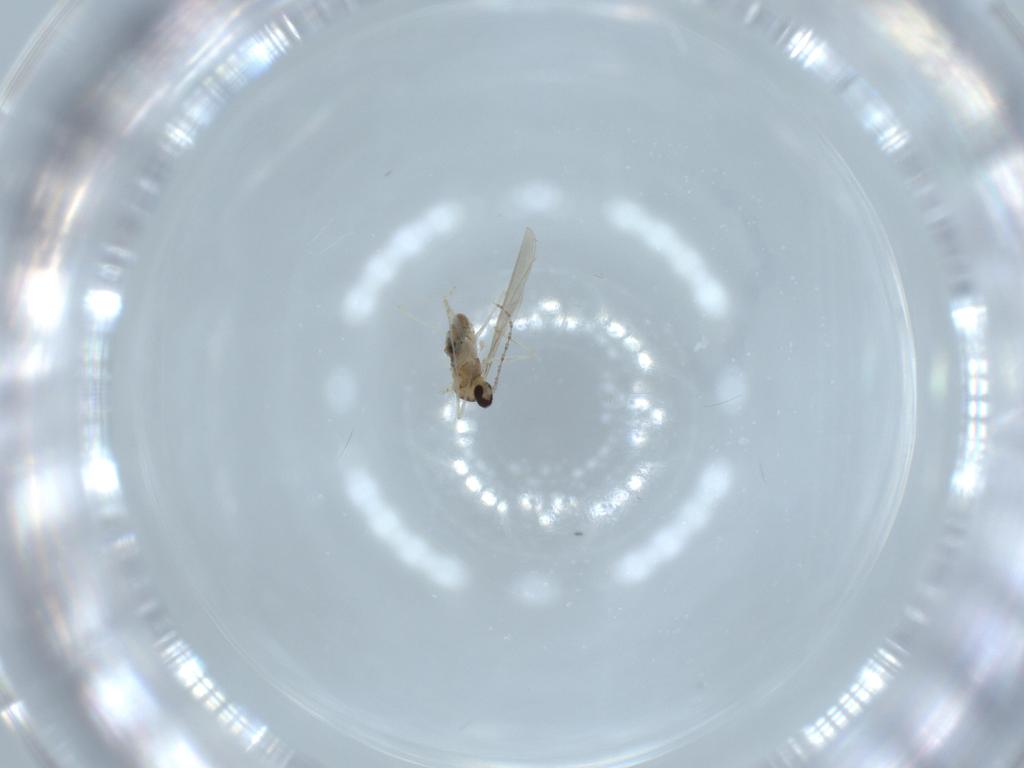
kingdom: Animalia
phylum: Arthropoda
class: Insecta
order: Diptera
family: Cecidomyiidae
